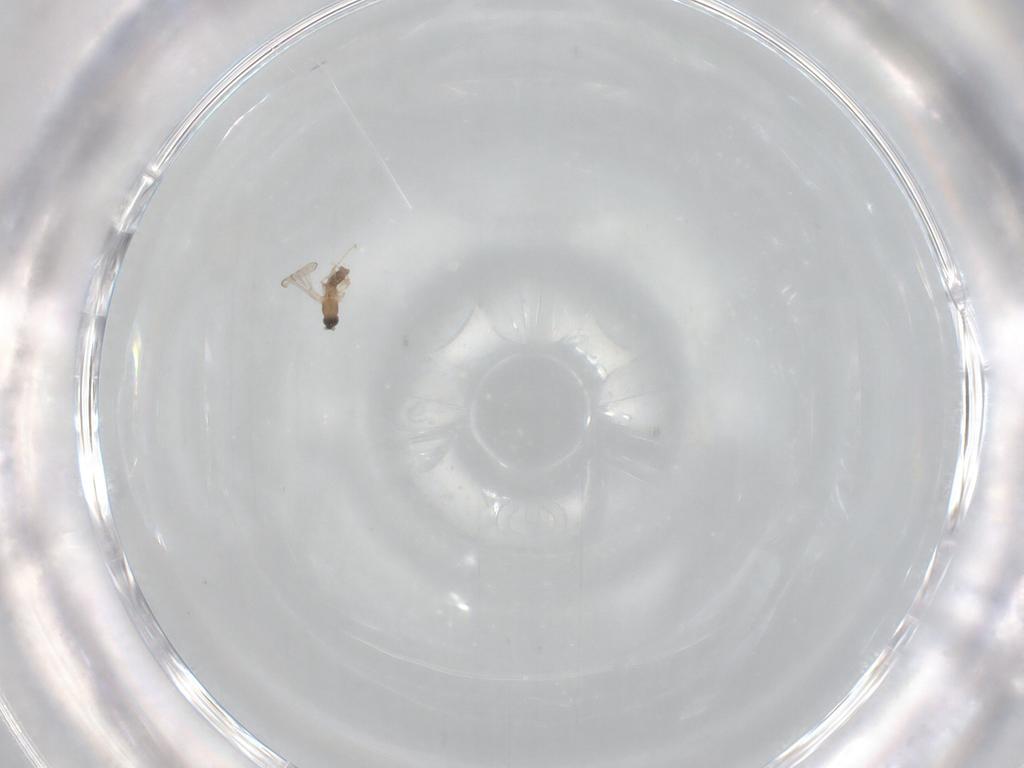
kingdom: Animalia
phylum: Arthropoda
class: Insecta
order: Diptera
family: Cecidomyiidae
